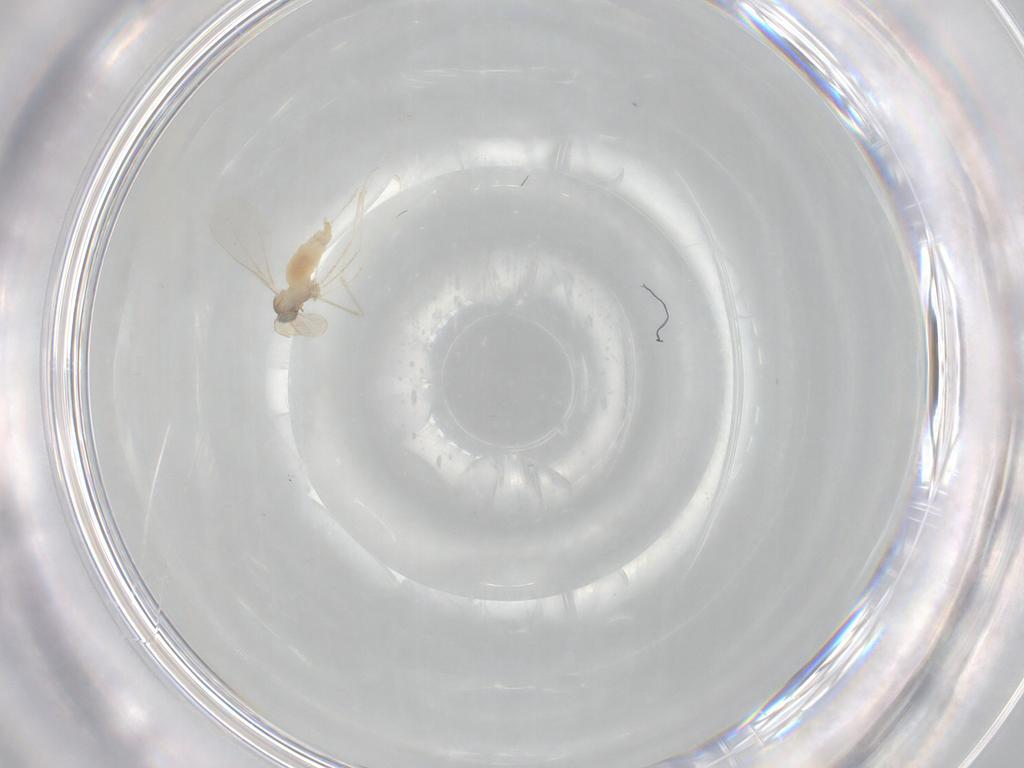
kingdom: Animalia
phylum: Arthropoda
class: Insecta
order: Diptera
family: Cecidomyiidae
